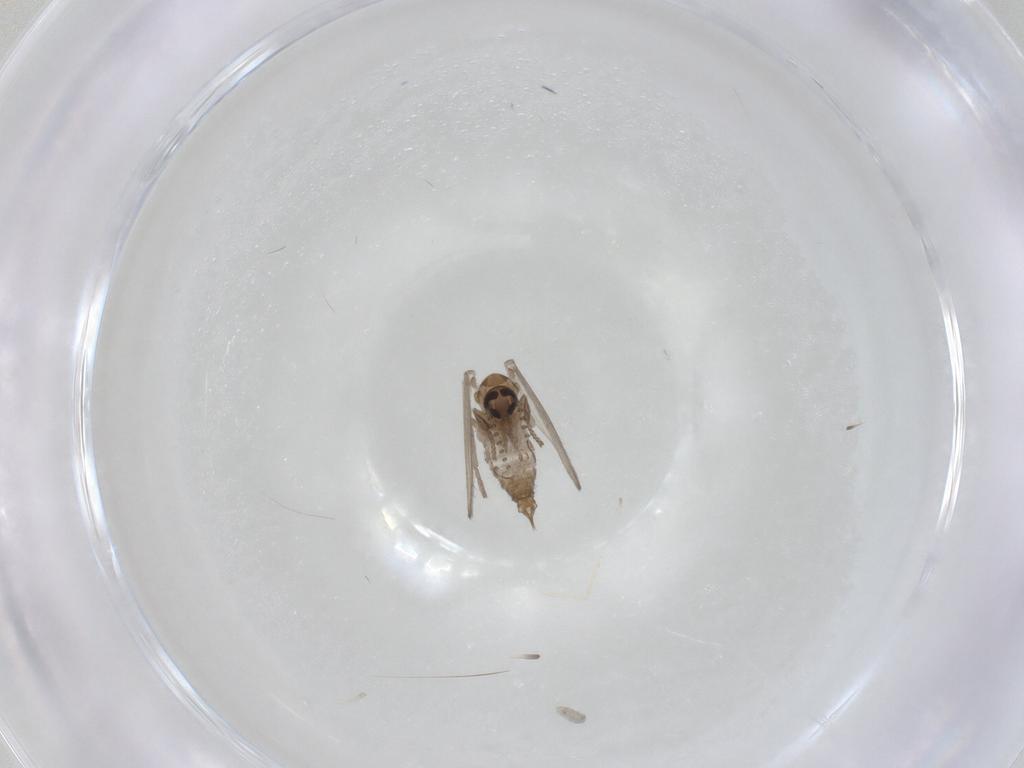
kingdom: Animalia
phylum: Arthropoda
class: Insecta
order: Diptera
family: Psychodidae
